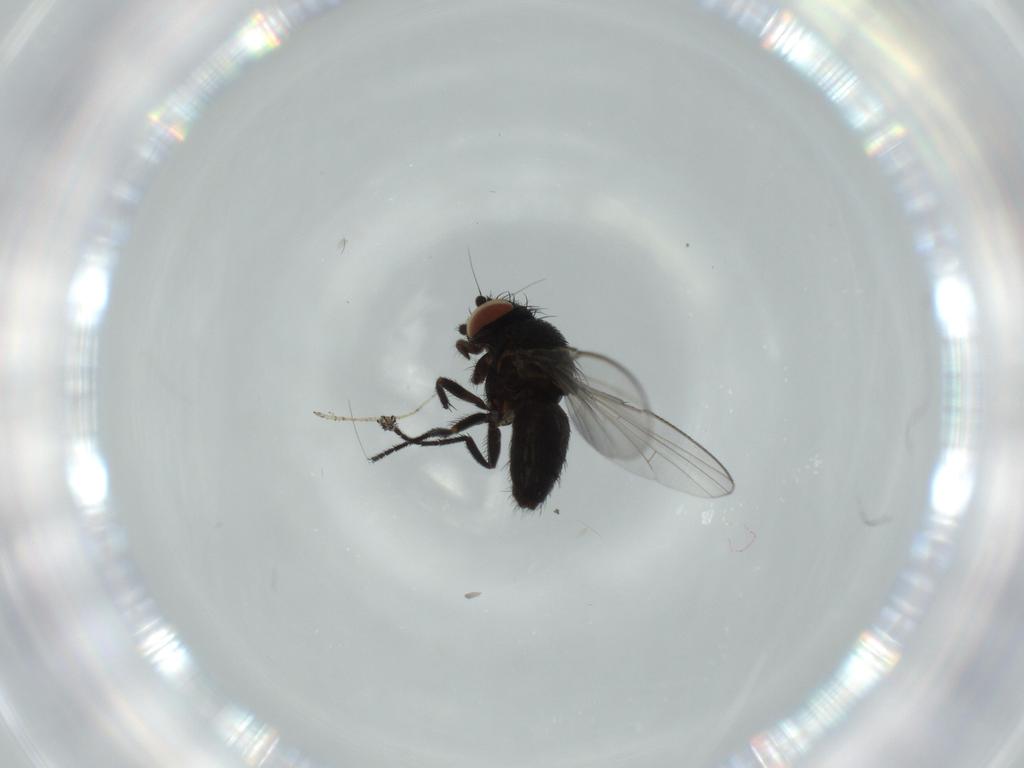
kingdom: Animalia
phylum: Arthropoda
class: Insecta
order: Diptera
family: Milichiidae
